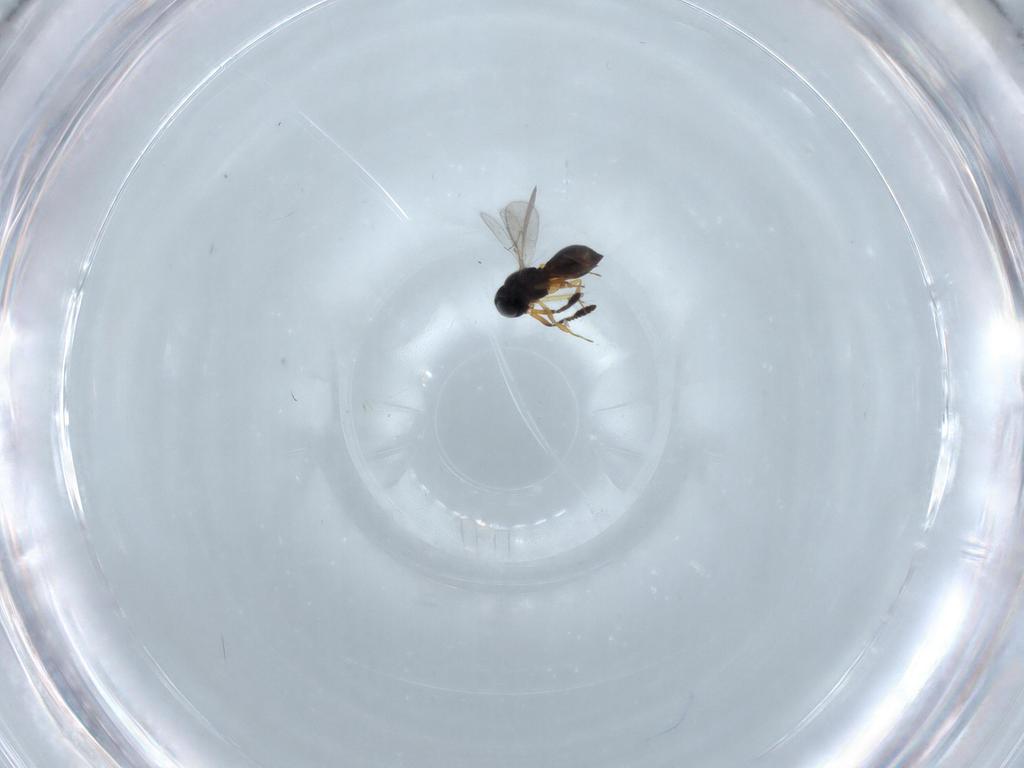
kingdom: Animalia
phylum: Arthropoda
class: Insecta
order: Hymenoptera
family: Scelionidae
